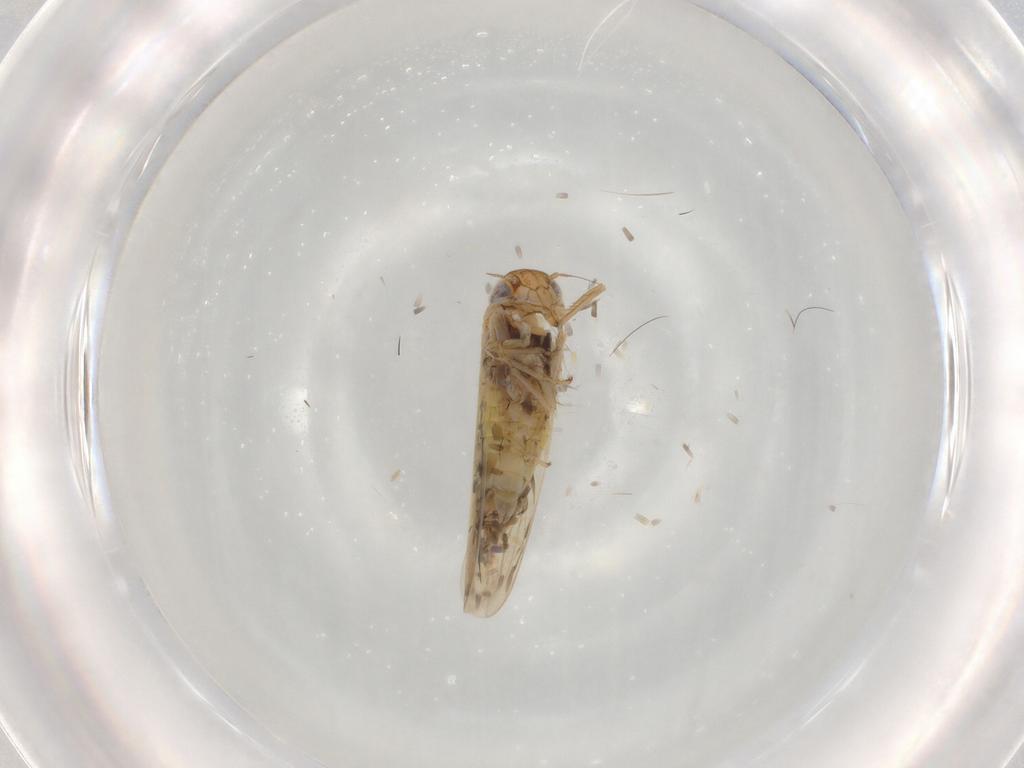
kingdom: Animalia
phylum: Arthropoda
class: Insecta
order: Hemiptera
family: Cicadellidae
